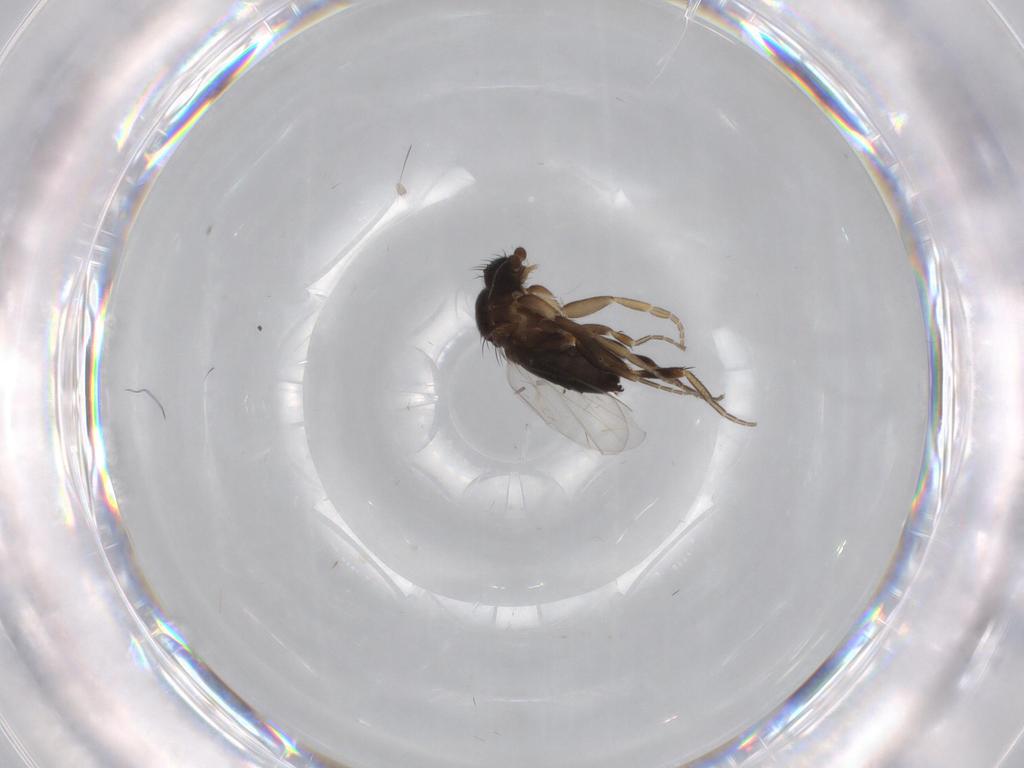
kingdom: Animalia
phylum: Arthropoda
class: Insecta
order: Diptera
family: Phoridae
